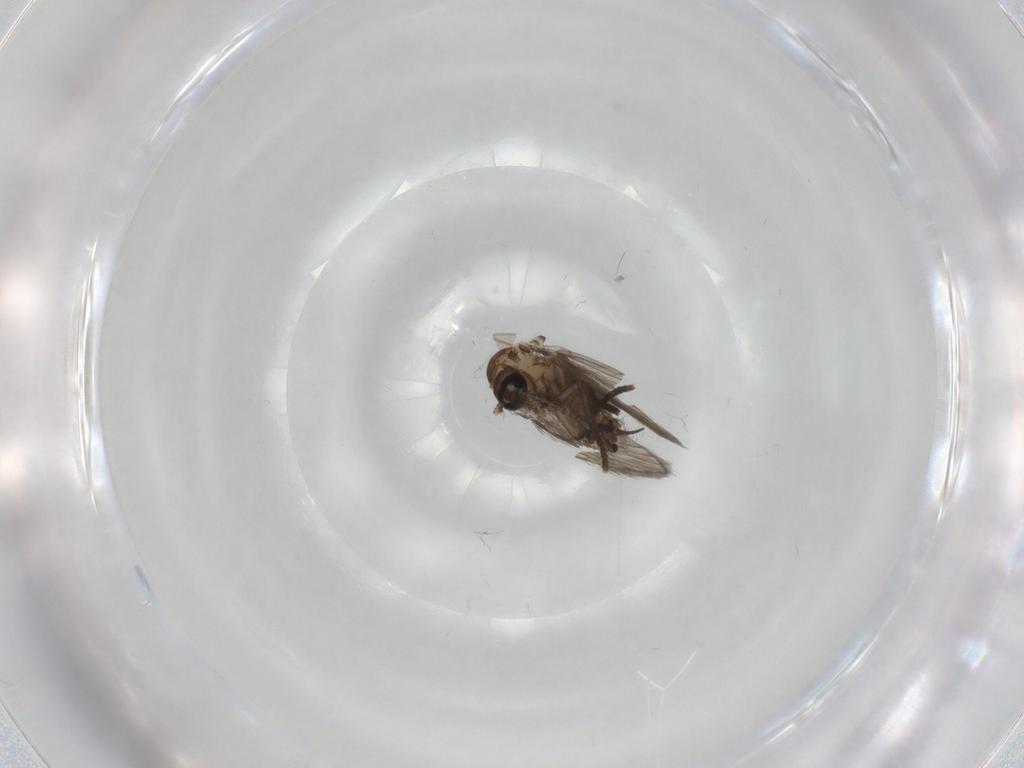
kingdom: Animalia
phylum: Arthropoda
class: Insecta
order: Diptera
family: Psychodidae
